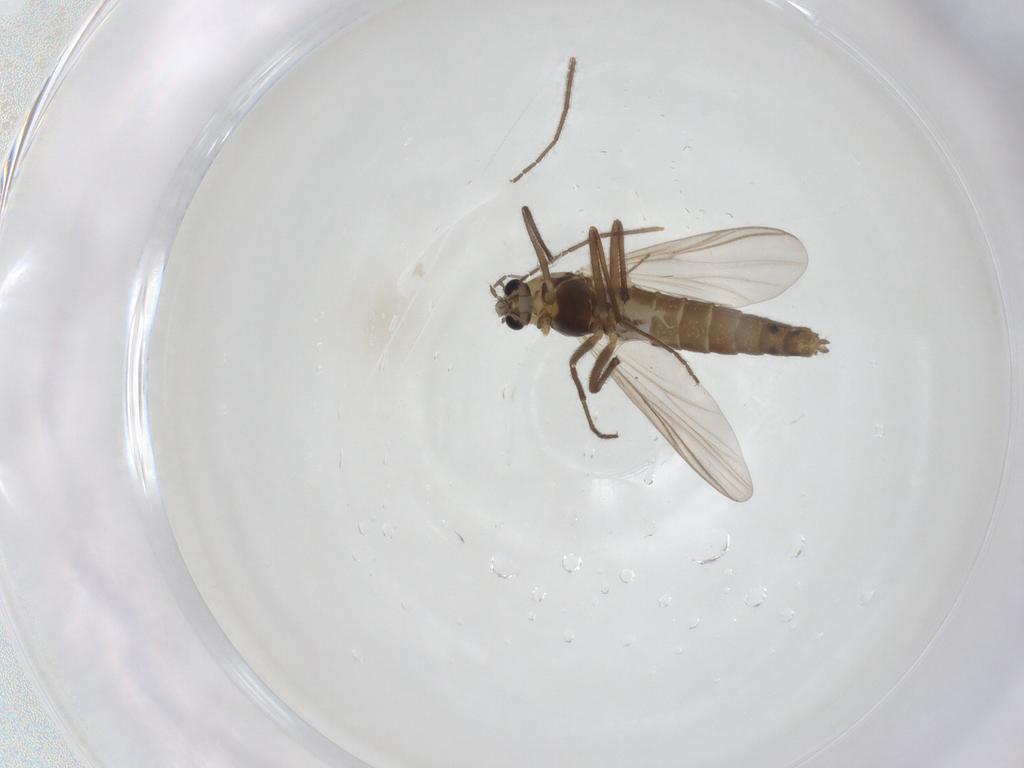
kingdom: Animalia
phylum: Arthropoda
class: Insecta
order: Diptera
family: Chironomidae
